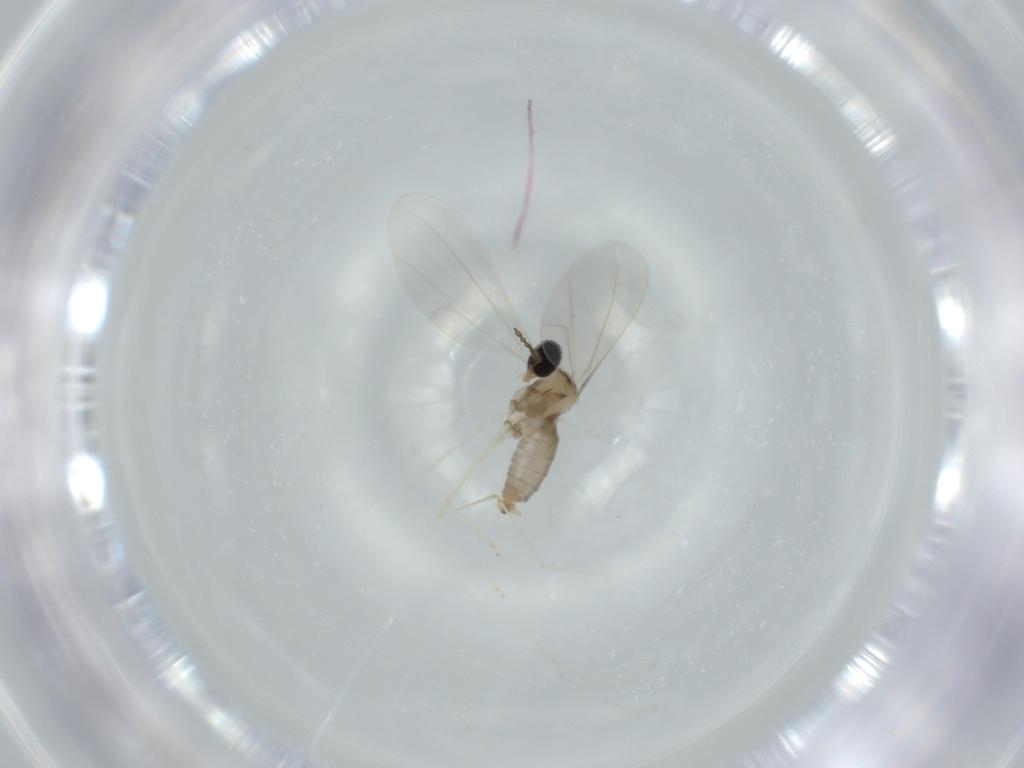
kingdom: Animalia
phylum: Arthropoda
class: Insecta
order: Diptera
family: Cecidomyiidae
